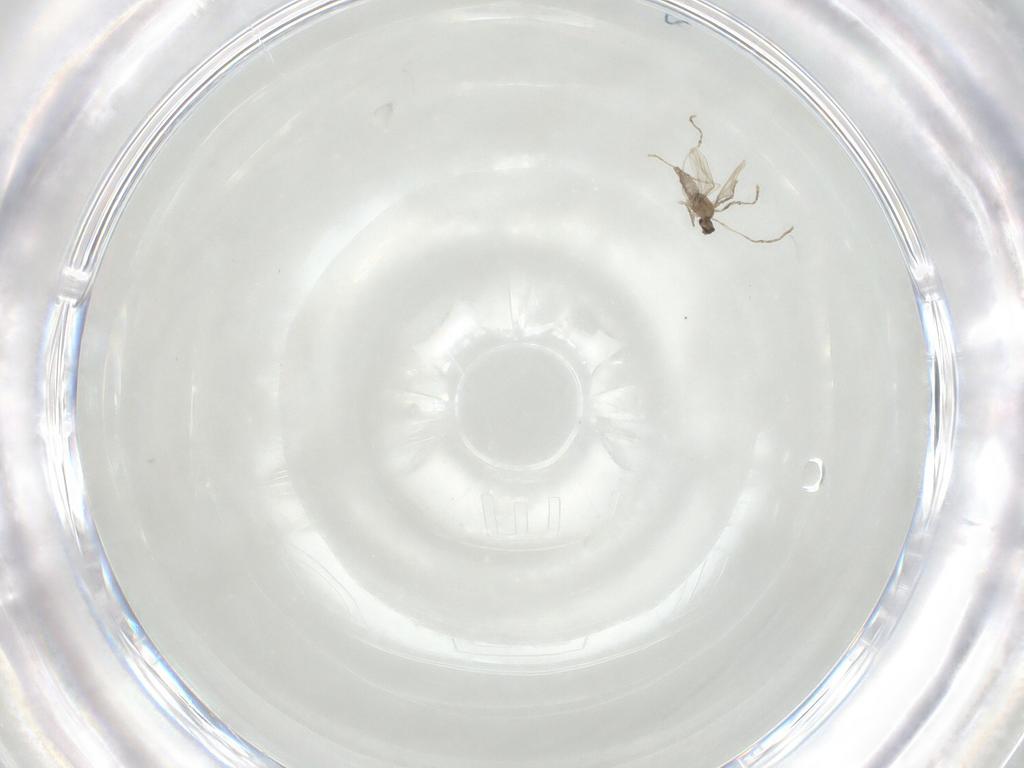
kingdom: Animalia
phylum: Arthropoda
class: Insecta
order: Diptera
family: Cecidomyiidae
